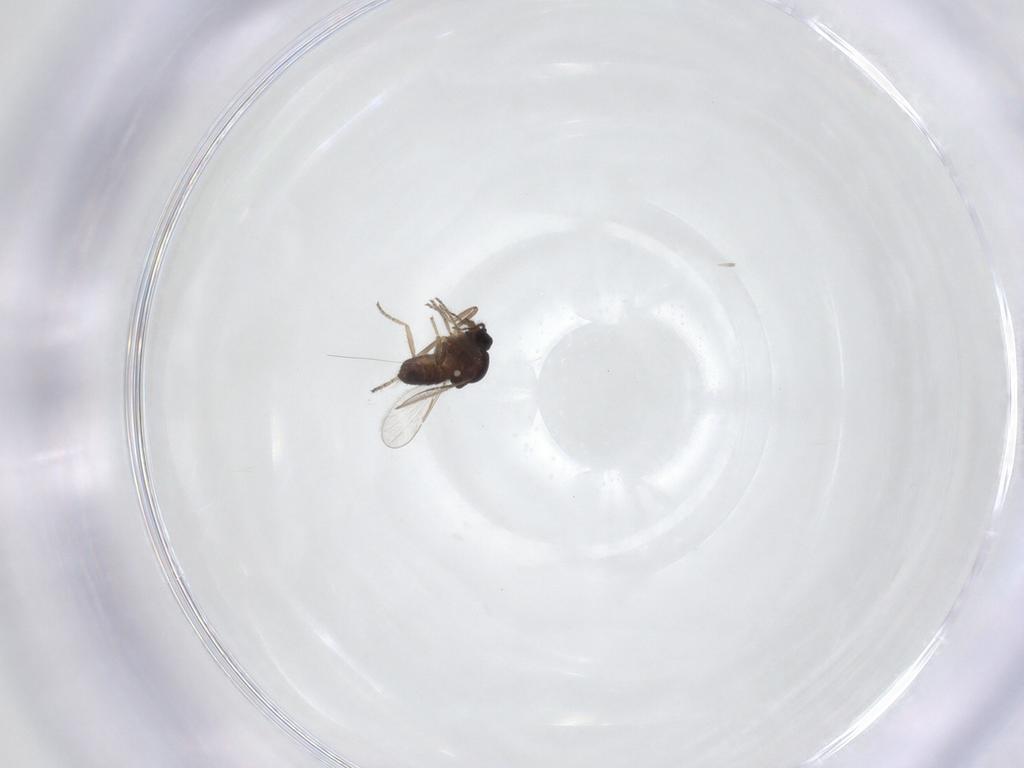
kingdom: Animalia
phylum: Arthropoda
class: Insecta
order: Diptera
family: Ceratopogonidae
